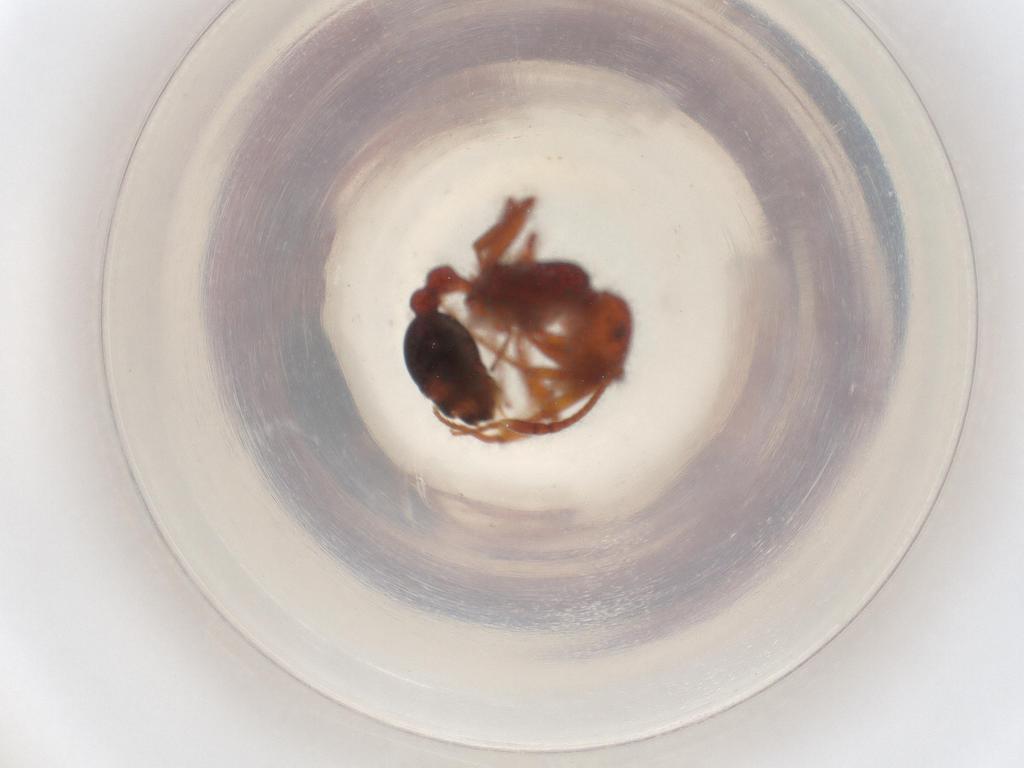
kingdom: Animalia
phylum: Arthropoda
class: Insecta
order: Hymenoptera
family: Formicidae
